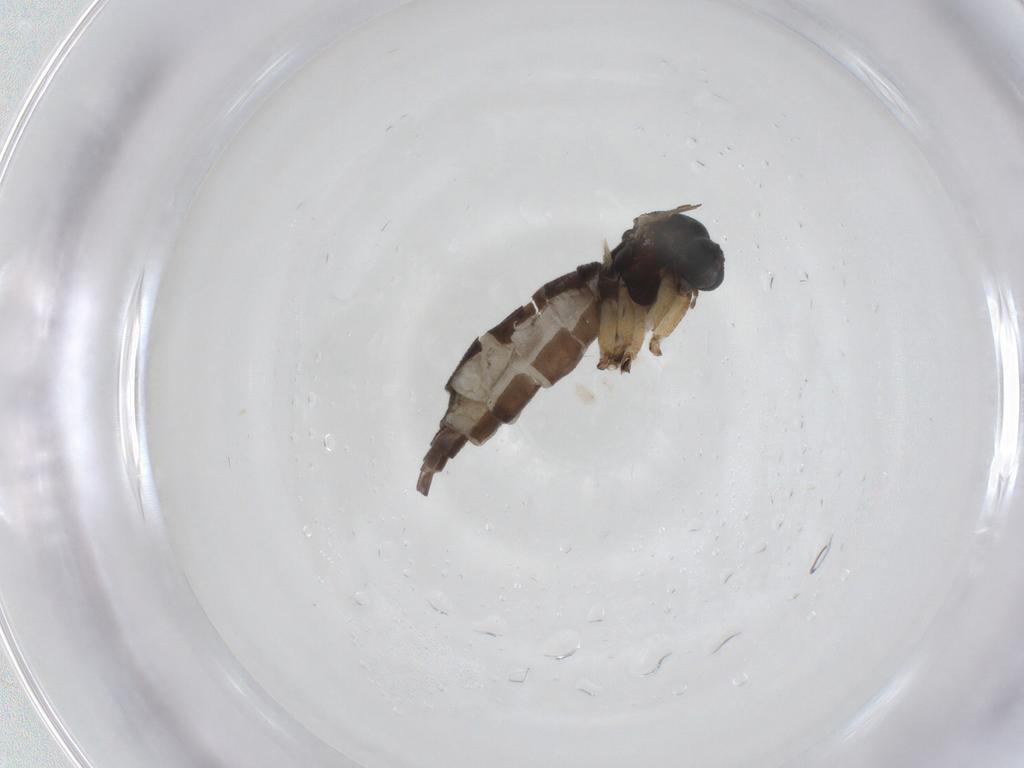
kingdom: Animalia
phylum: Arthropoda
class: Insecta
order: Diptera
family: Sciaridae
